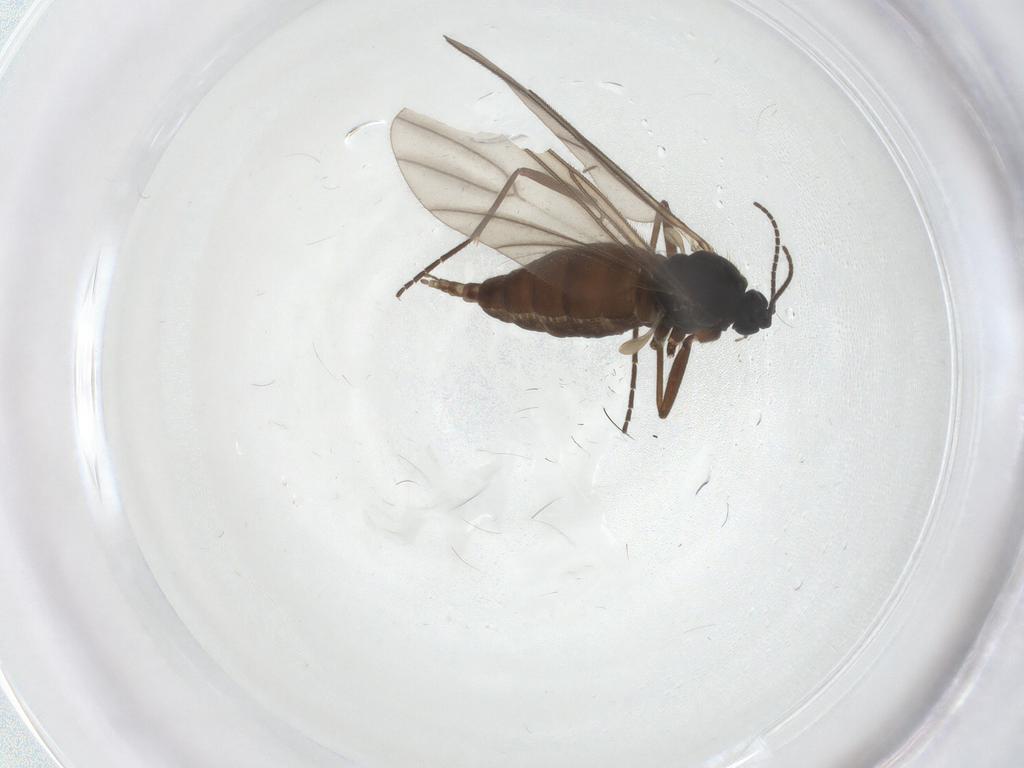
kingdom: Animalia
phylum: Arthropoda
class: Insecta
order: Diptera
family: Sciaridae
